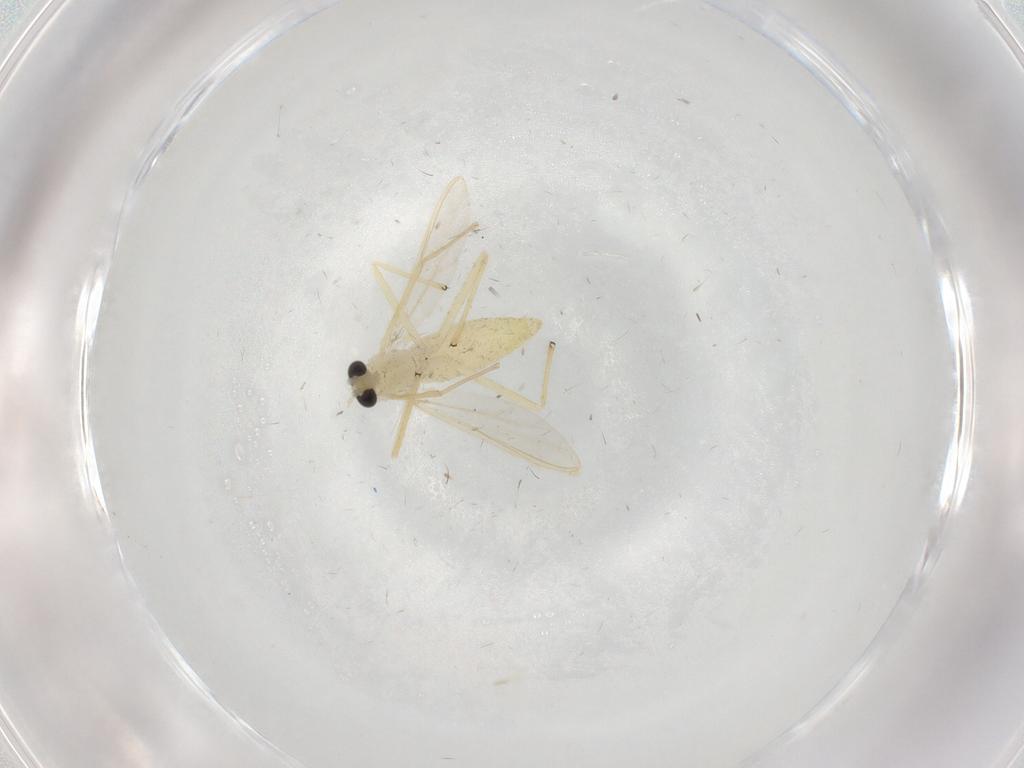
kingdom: Animalia
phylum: Arthropoda
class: Insecta
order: Diptera
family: Chironomidae
